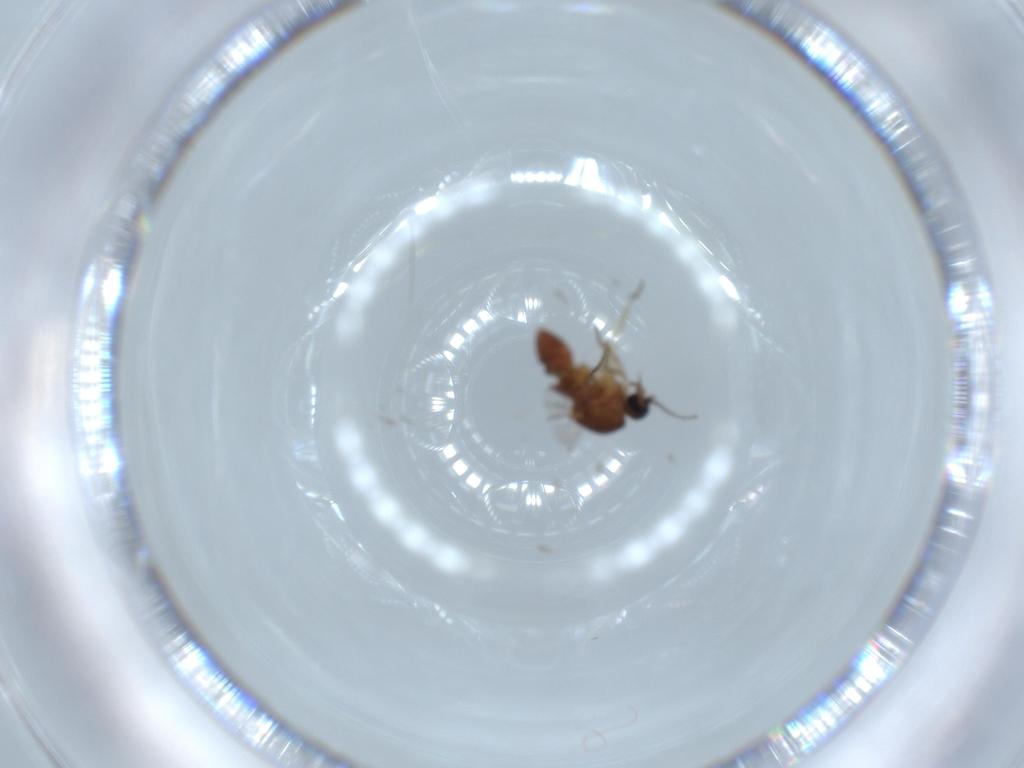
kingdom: Animalia
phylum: Arthropoda
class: Insecta
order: Diptera
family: Ceratopogonidae
